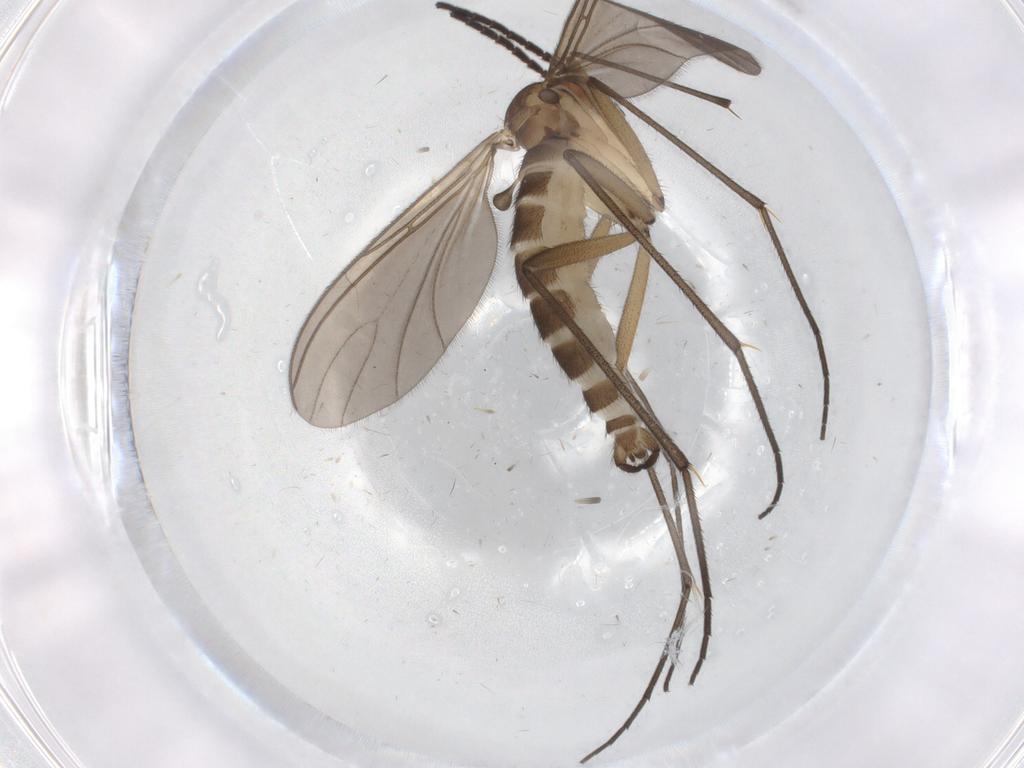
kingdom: Animalia
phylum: Arthropoda
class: Insecta
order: Diptera
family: Sciaridae
